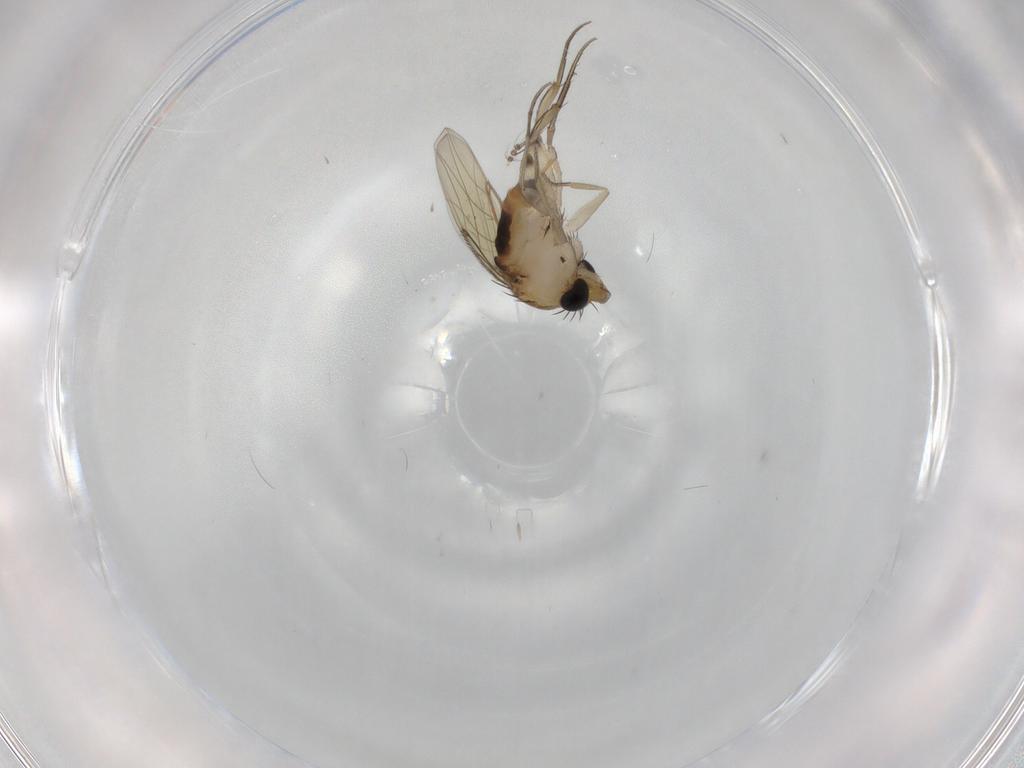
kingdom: Animalia
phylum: Arthropoda
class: Insecta
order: Diptera
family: Phoridae
